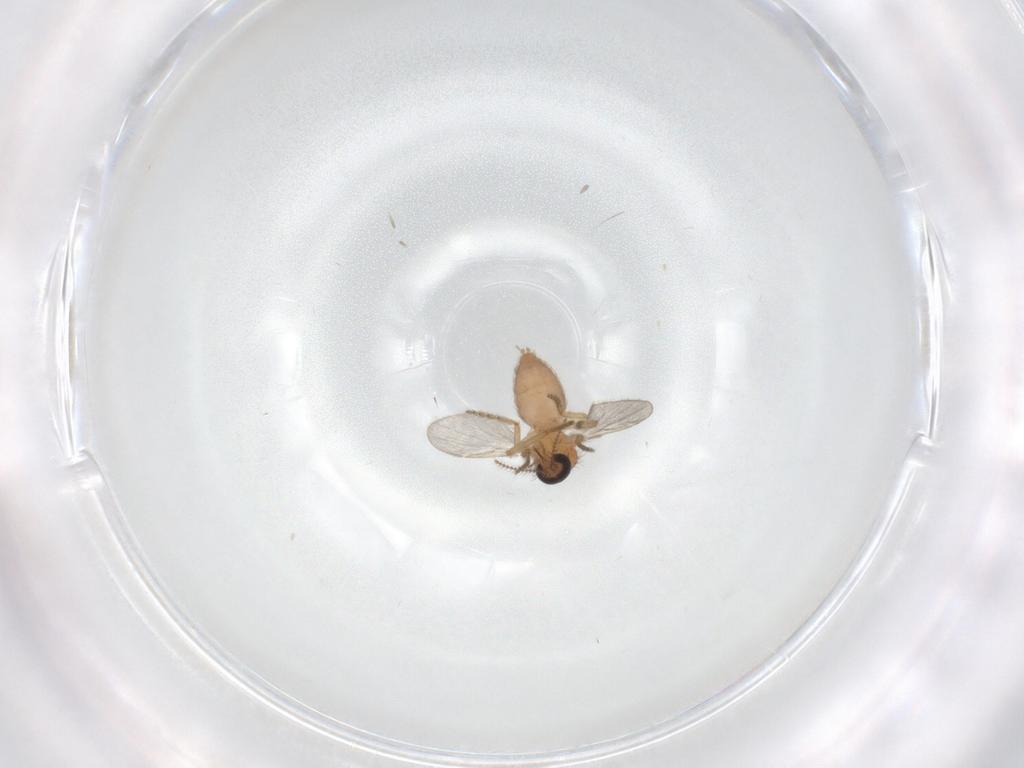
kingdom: Animalia
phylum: Arthropoda
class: Insecta
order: Diptera
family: Ceratopogonidae
